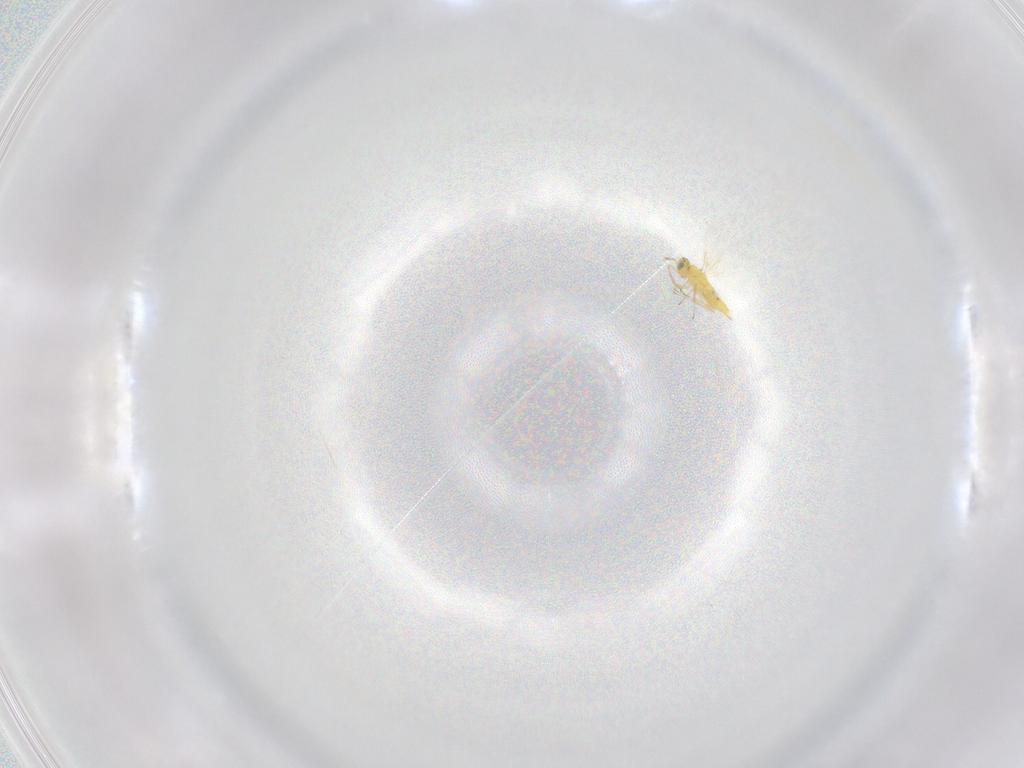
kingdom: Animalia
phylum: Arthropoda
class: Insecta
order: Hymenoptera
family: Aphelinidae
